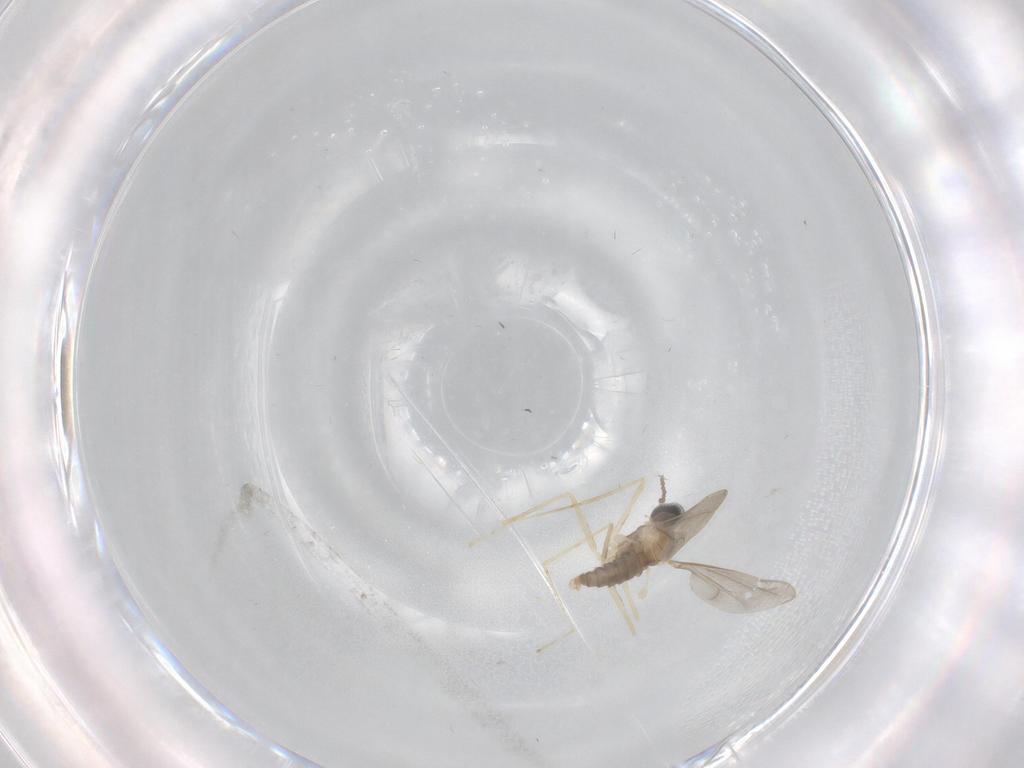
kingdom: Animalia
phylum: Arthropoda
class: Insecta
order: Diptera
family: Cecidomyiidae
